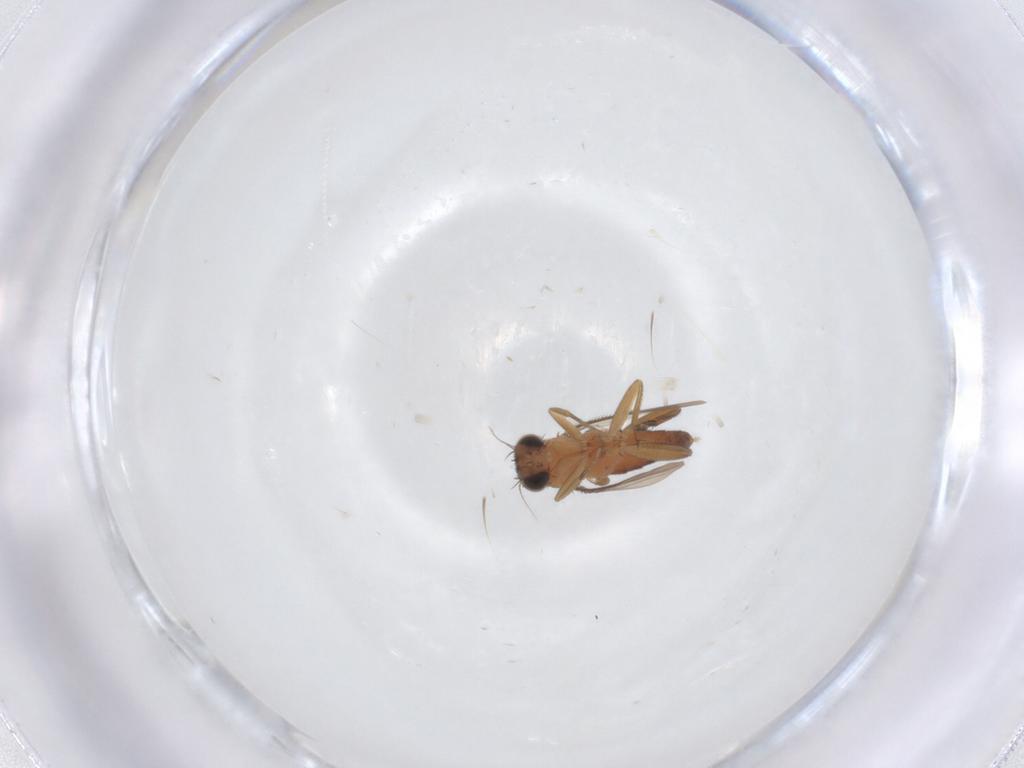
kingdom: Animalia
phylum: Arthropoda
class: Insecta
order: Diptera
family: Phoridae
